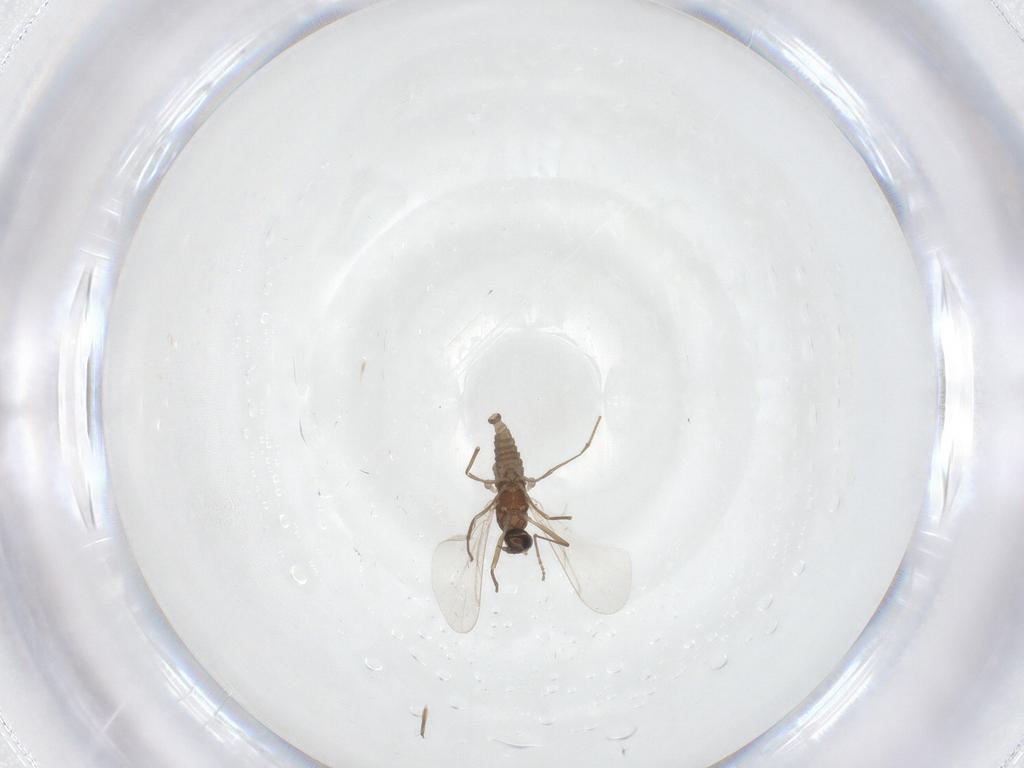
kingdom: Animalia
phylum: Arthropoda
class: Insecta
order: Diptera
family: Cecidomyiidae
